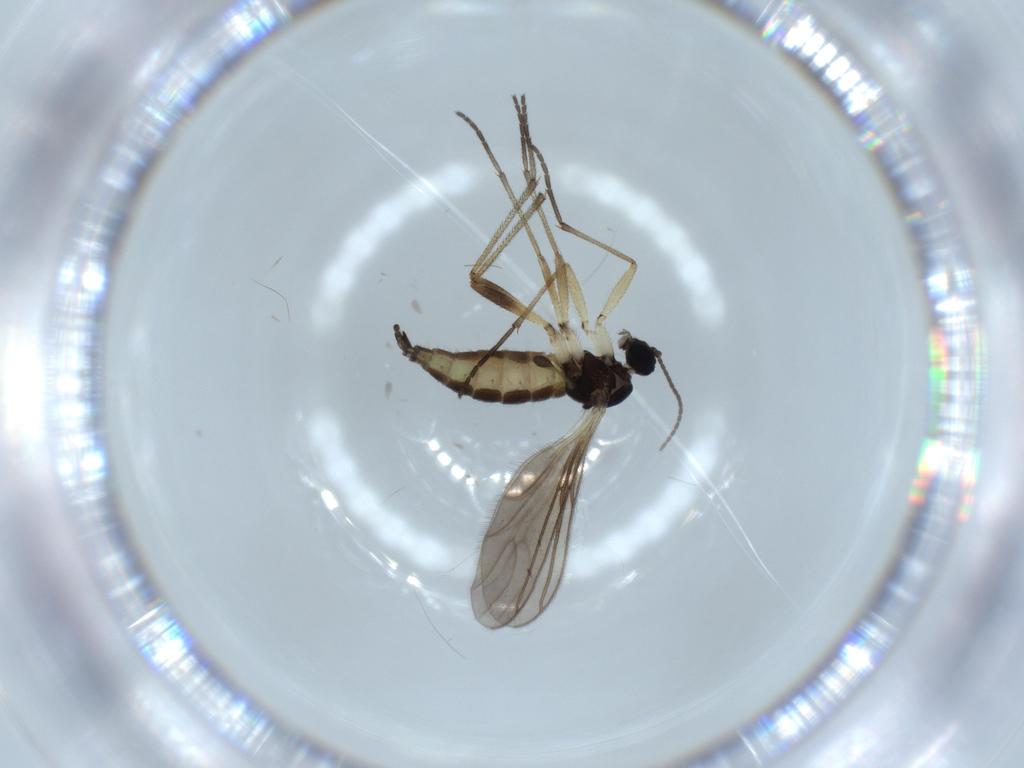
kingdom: Animalia
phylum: Arthropoda
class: Insecta
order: Diptera
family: Sciaridae
